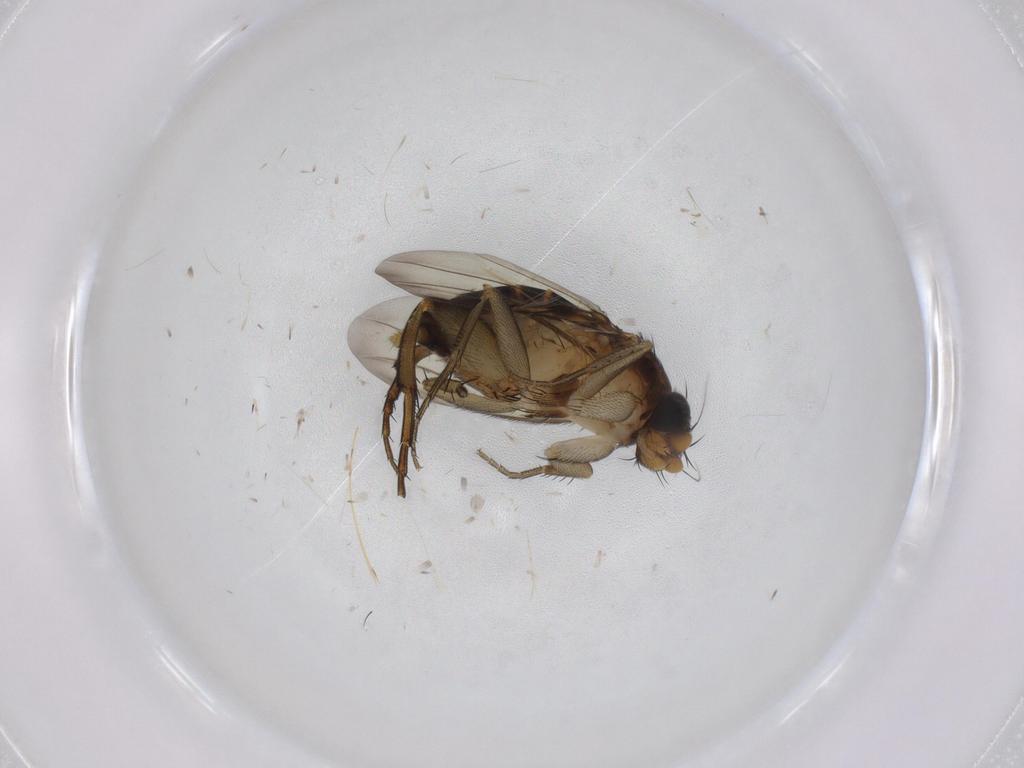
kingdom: Animalia
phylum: Arthropoda
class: Insecta
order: Diptera
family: Phoridae
